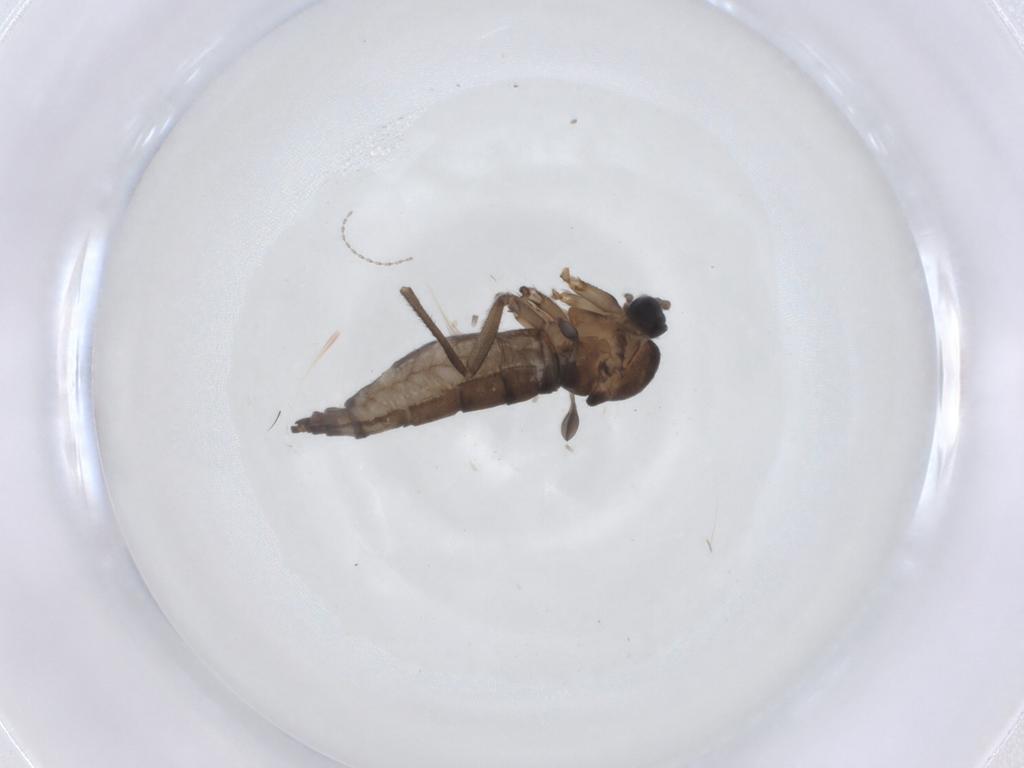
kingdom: Animalia
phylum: Arthropoda
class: Insecta
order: Diptera
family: Sciaridae
